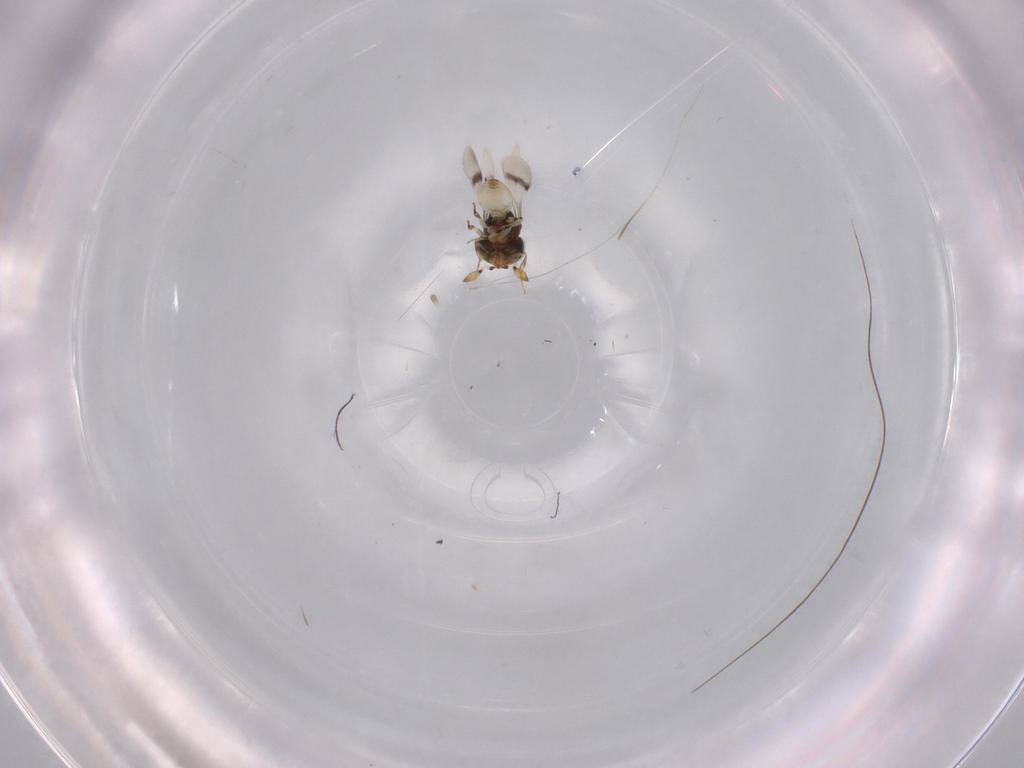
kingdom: Animalia
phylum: Arthropoda
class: Insecta
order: Hymenoptera
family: Scelionidae
